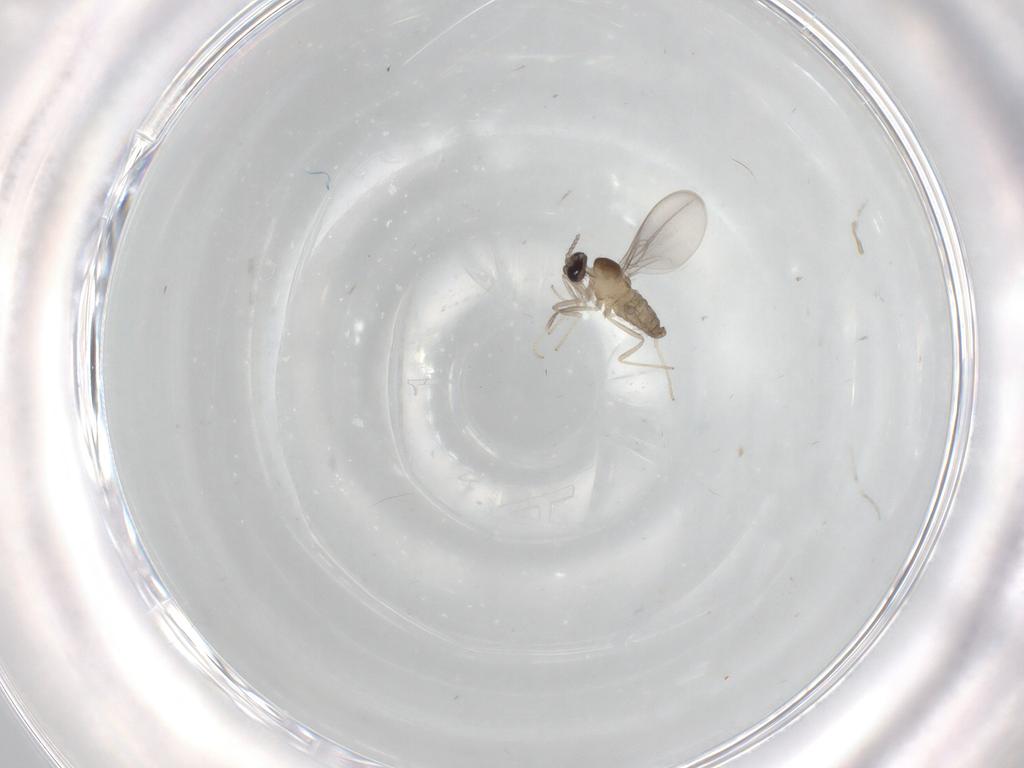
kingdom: Animalia
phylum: Arthropoda
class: Insecta
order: Diptera
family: Cecidomyiidae
